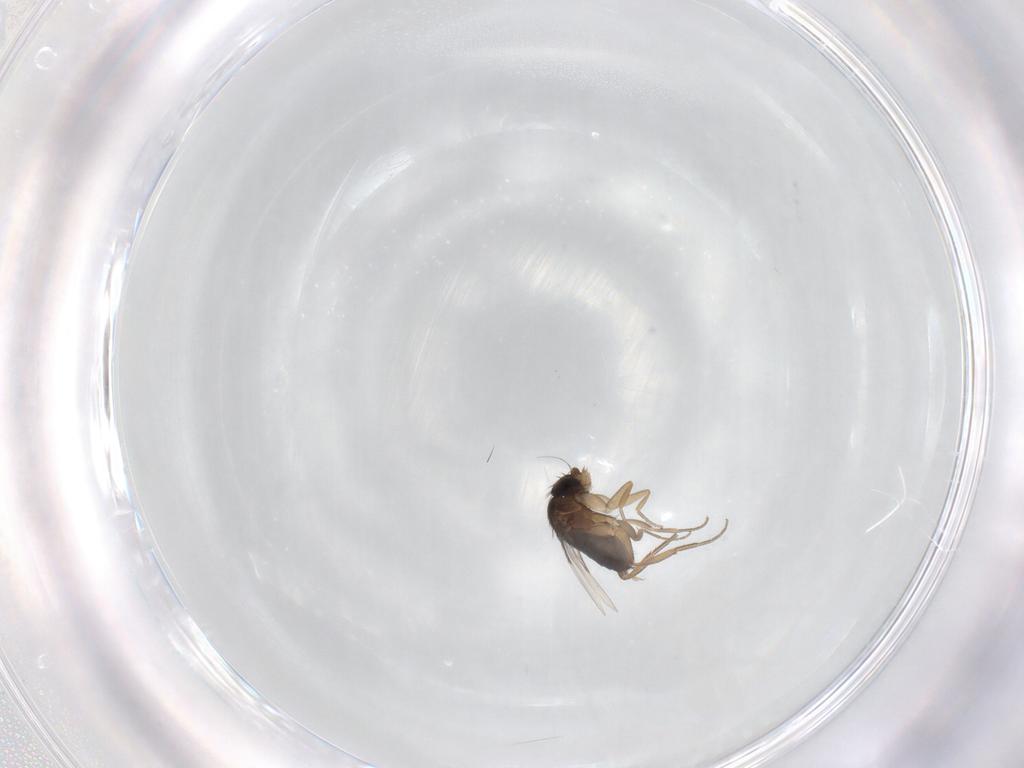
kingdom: Animalia
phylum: Arthropoda
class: Insecta
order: Diptera
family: Phoridae
